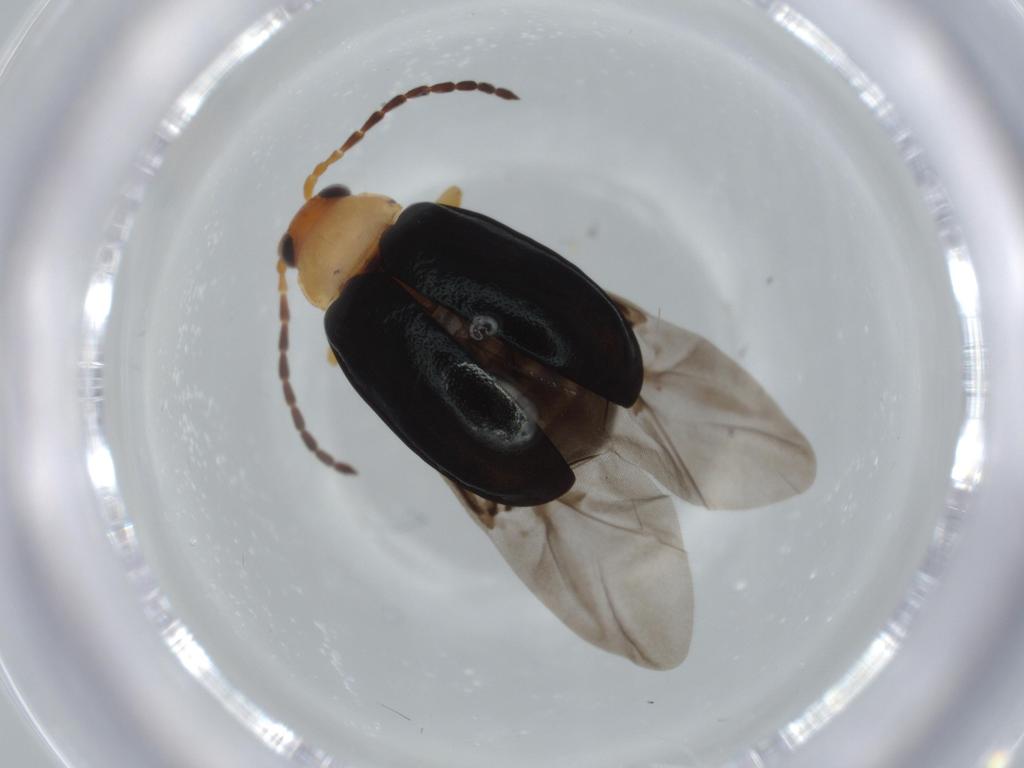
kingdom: Animalia
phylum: Arthropoda
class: Insecta
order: Coleoptera
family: Chrysomelidae
